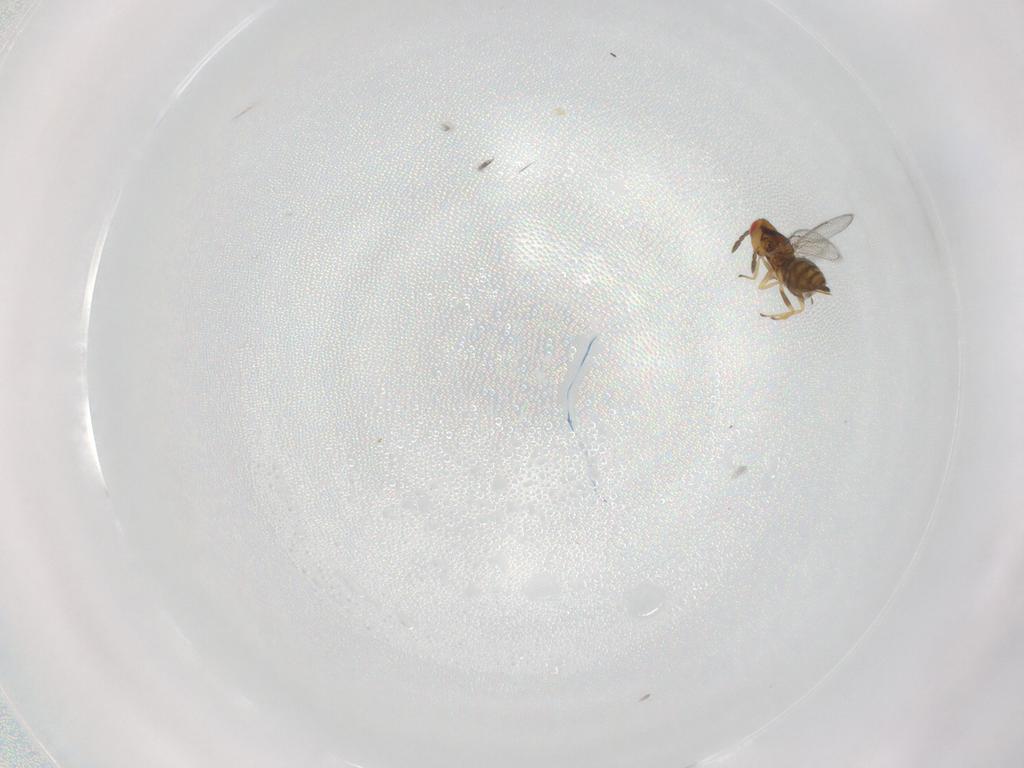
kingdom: Animalia
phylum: Arthropoda
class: Insecta
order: Hymenoptera
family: Eulophidae
